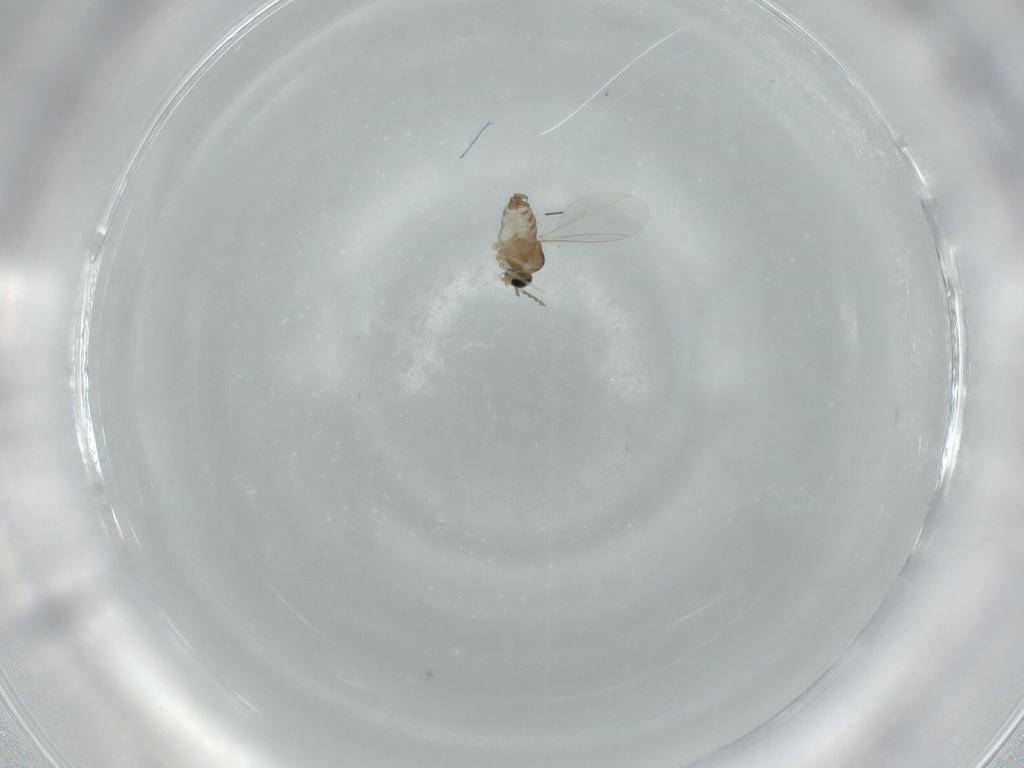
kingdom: Animalia
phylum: Arthropoda
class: Insecta
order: Diptera
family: Cecidomyiidae
